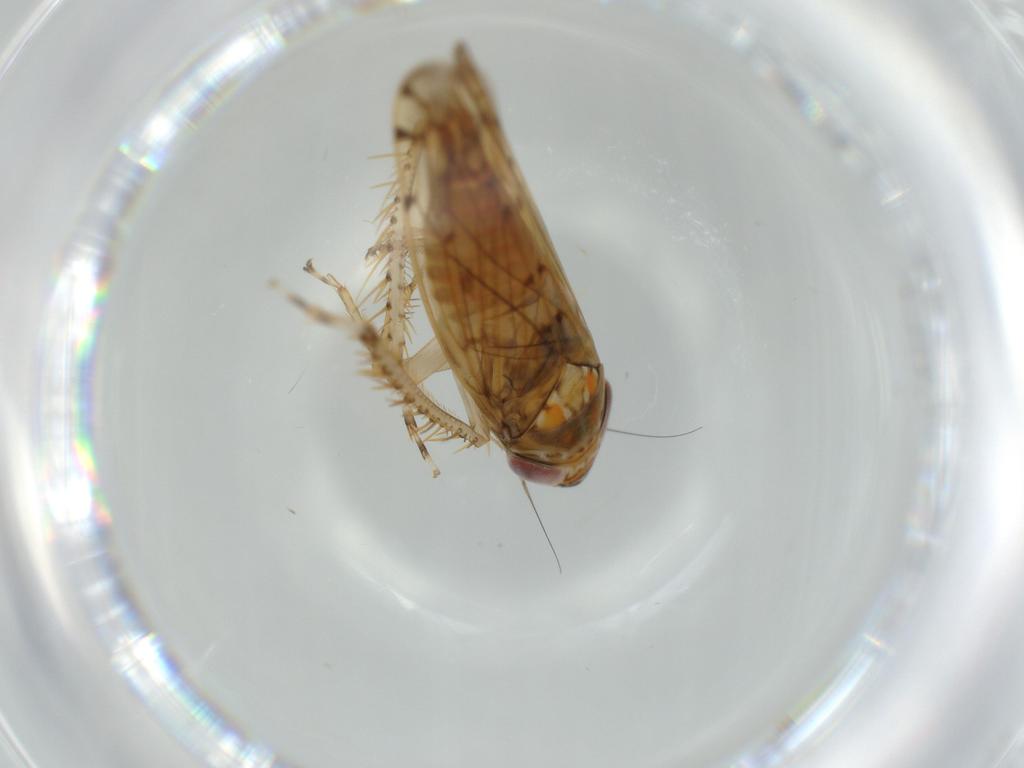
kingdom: Animalia
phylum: Arthropoda
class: Insecta
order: Hemiptera
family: Cicadellidae
